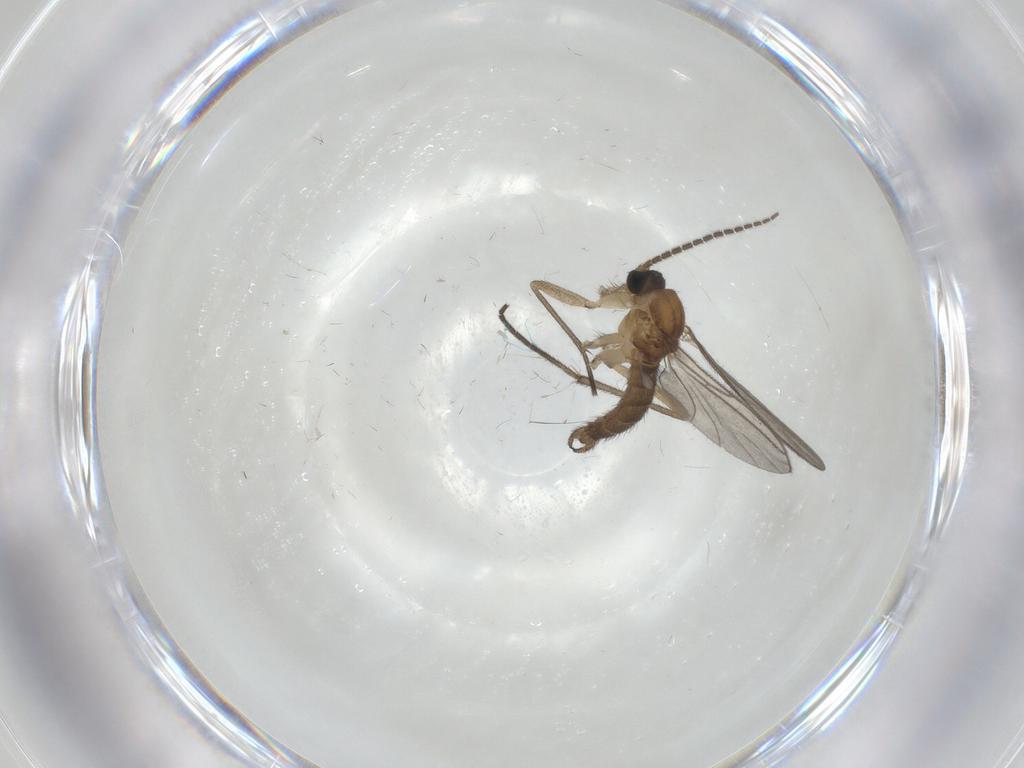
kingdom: Animalia
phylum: Arthropoda
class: Insecta
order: Diptera
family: Sciaridae
